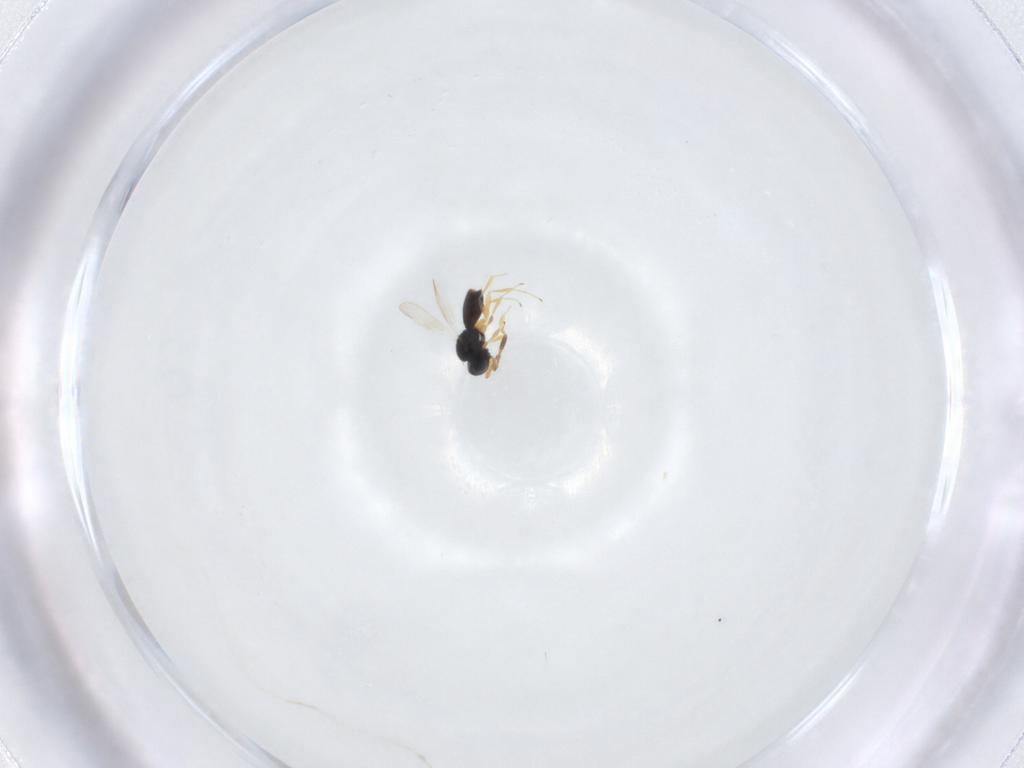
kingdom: Animalia
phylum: Arthropoda
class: Insecta
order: Hymenoptera
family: Scelionidae
